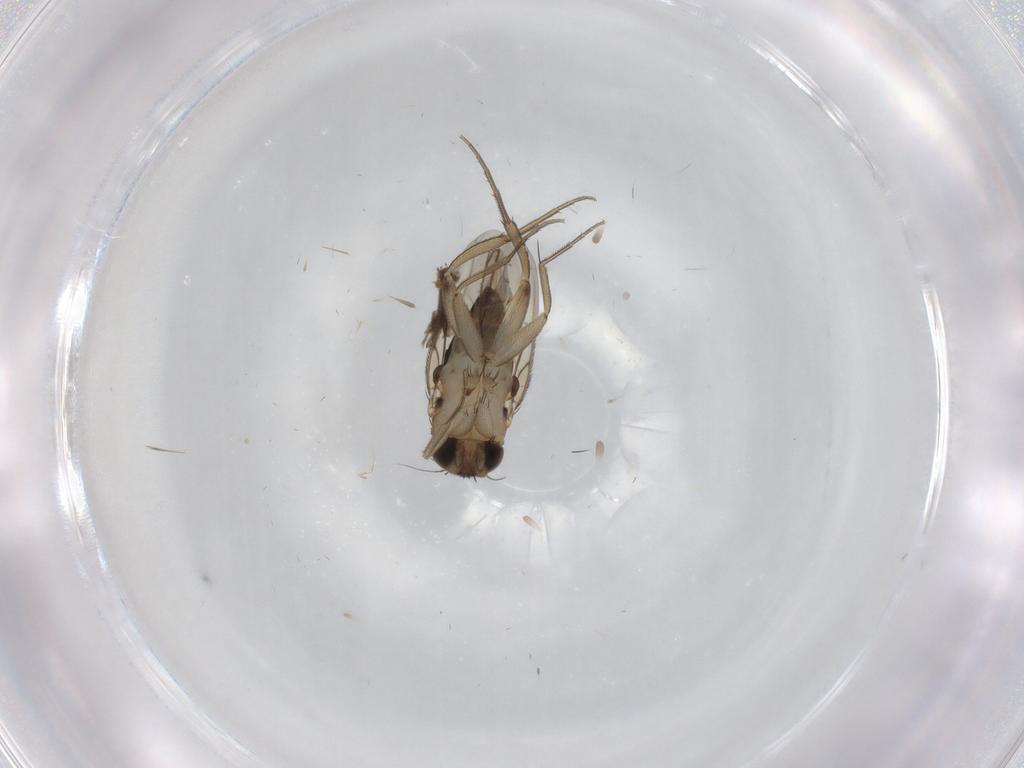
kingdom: Animalia
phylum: Arthropoda
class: Insecta
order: Diptera
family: Phoridae
